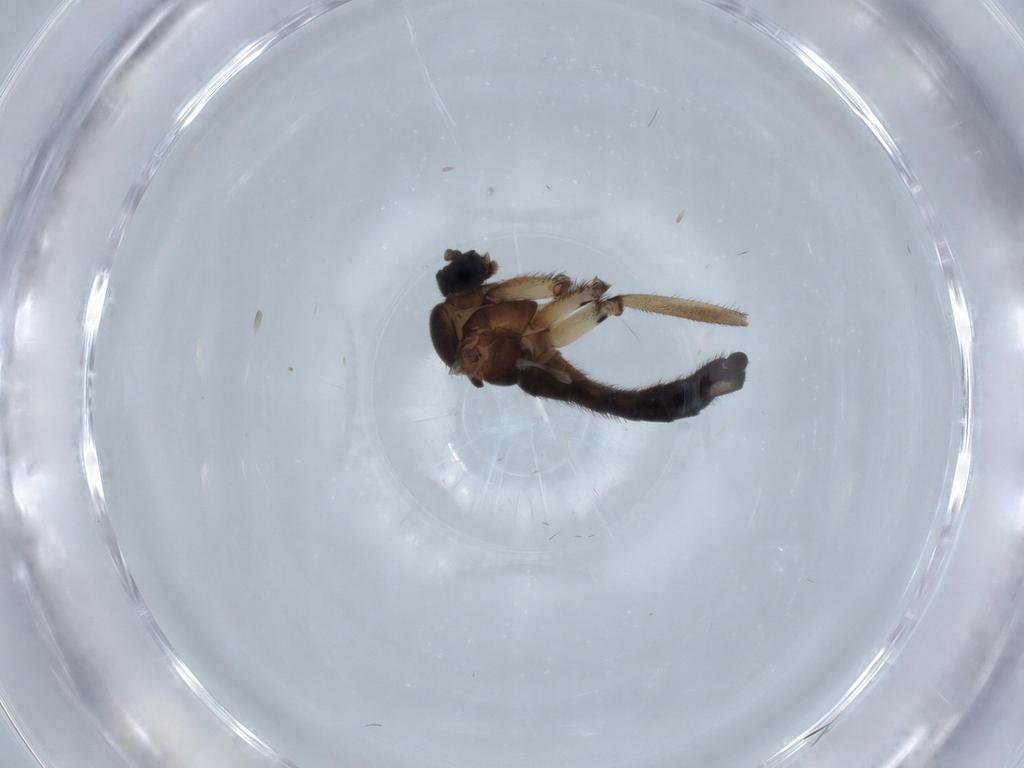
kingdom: Animalia
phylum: Arthropoda
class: Insecta
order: Diptera
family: Sciaridae
